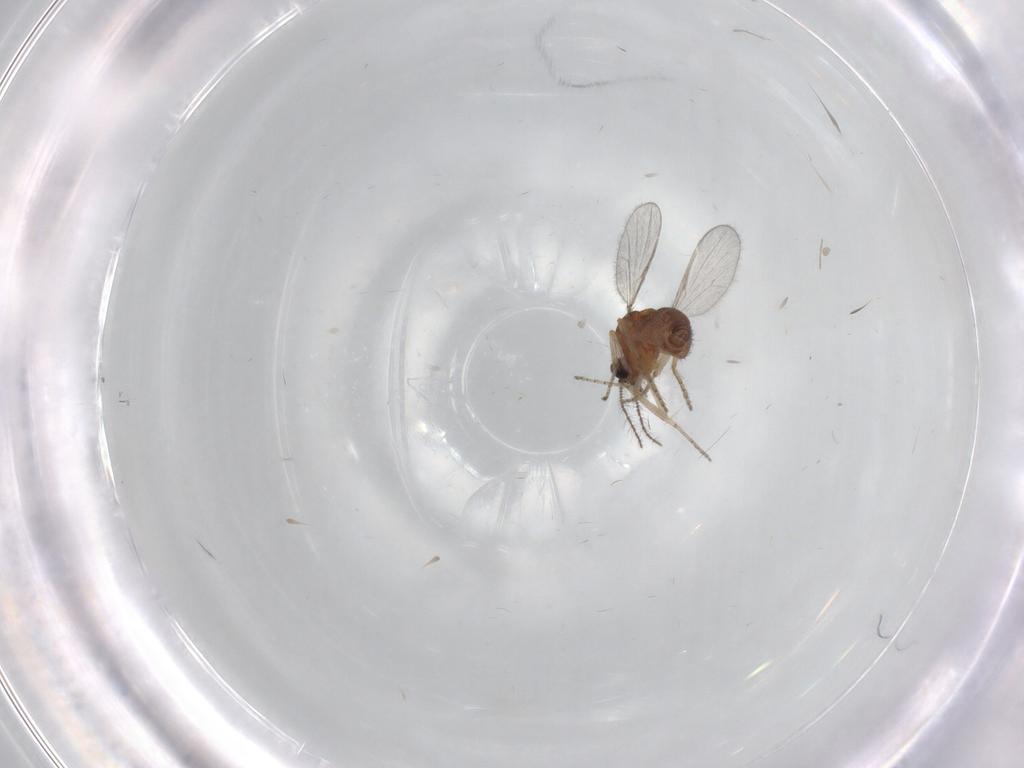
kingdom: Animalia
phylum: Arthropoda
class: Insecta
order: Diptera
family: Ceratopogonidae
